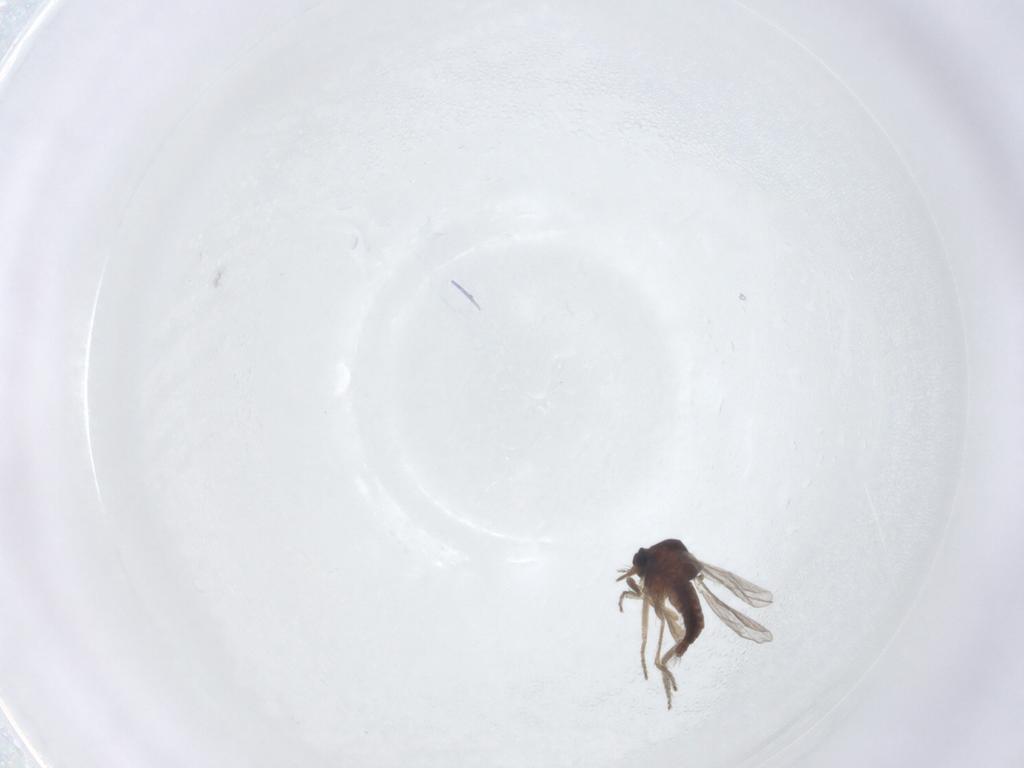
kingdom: Animalia
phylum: Arthropoda
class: Insecta
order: Diptera
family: Ceratopogonidae
